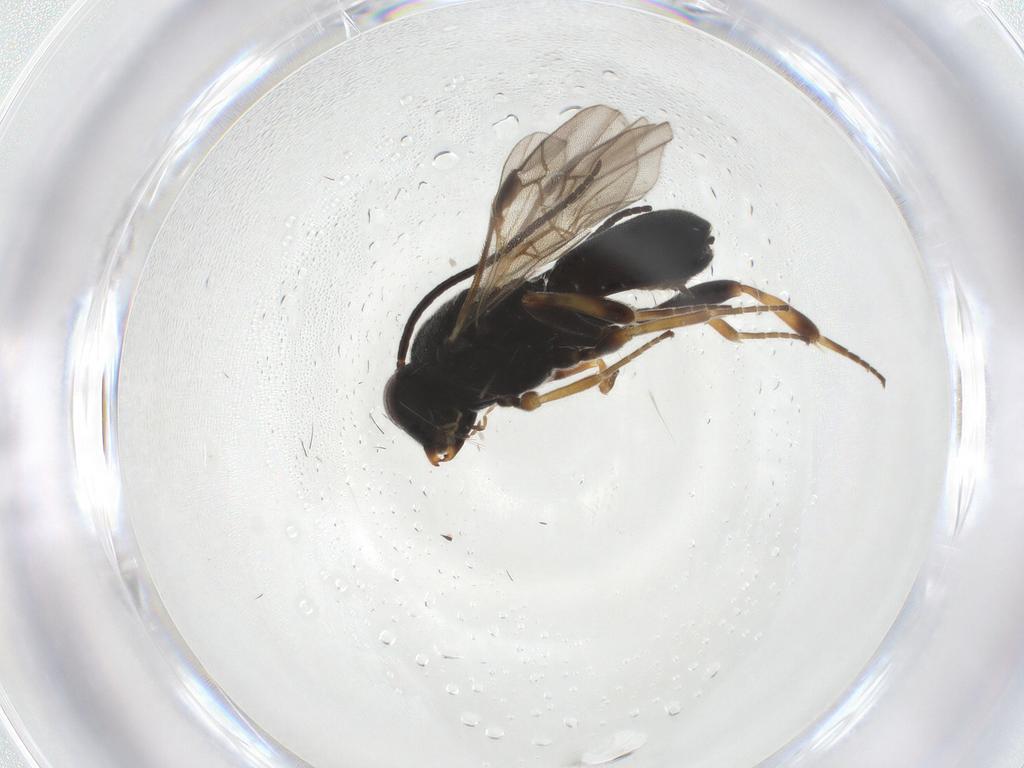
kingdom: Animalia
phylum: Arthropoda
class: Insecta
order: Hymenoptera
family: Braconidae
